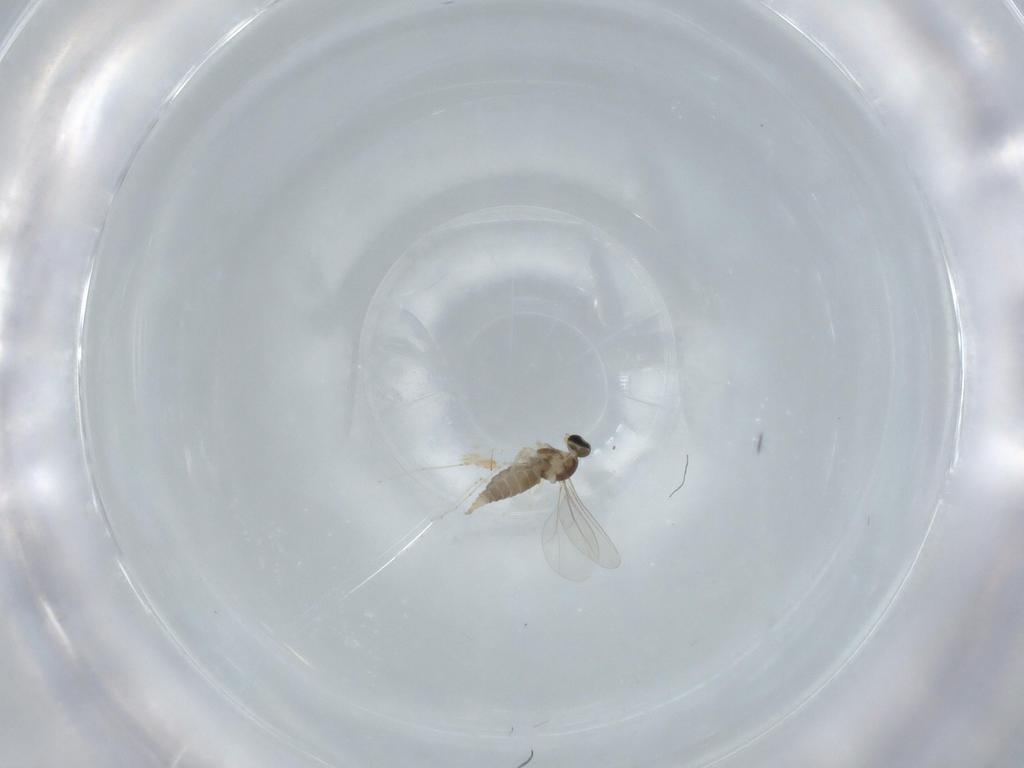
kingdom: Animalia
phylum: Arthropoda
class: Insecta
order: Diptera
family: Cecidomyiidae
